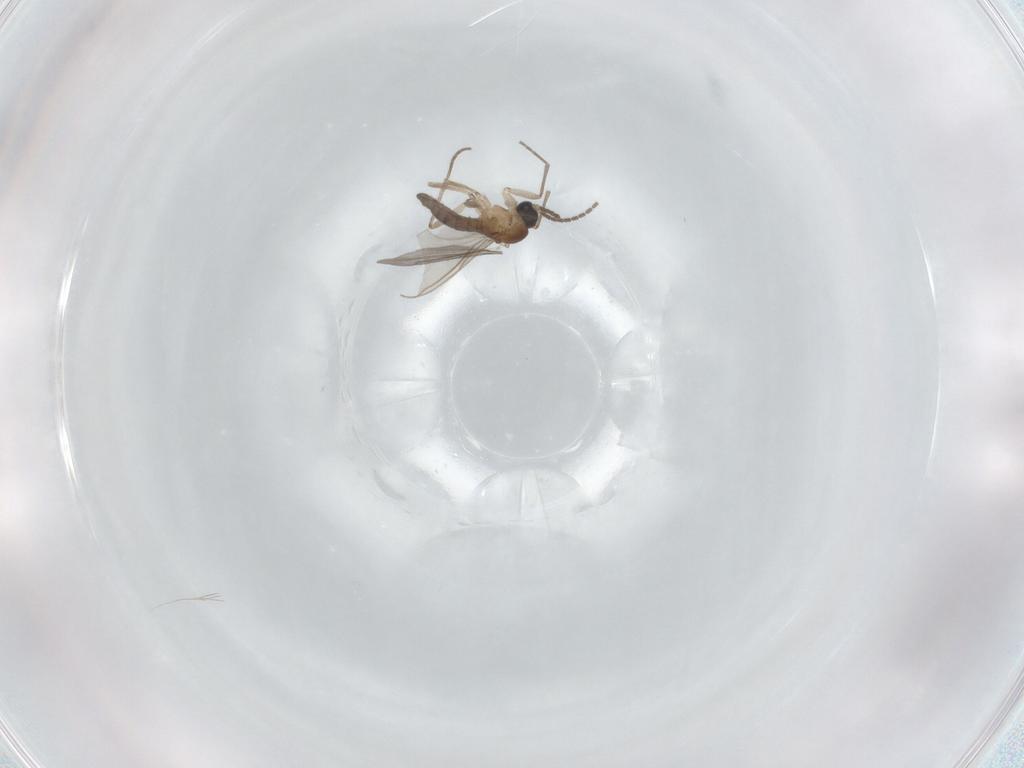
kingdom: Animalia
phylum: Arthropoda
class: Insecta
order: Diptera
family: Sciaridae
